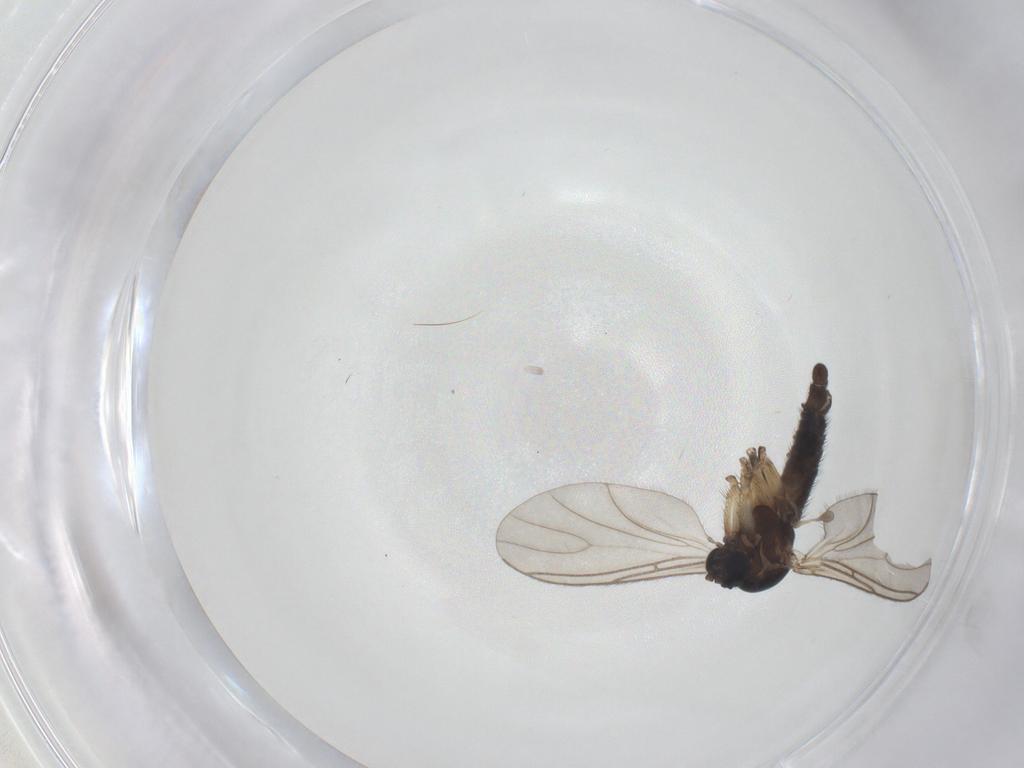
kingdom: Animalia
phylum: Arthropoda
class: Insecta
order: Diptera
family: Sciaridae
